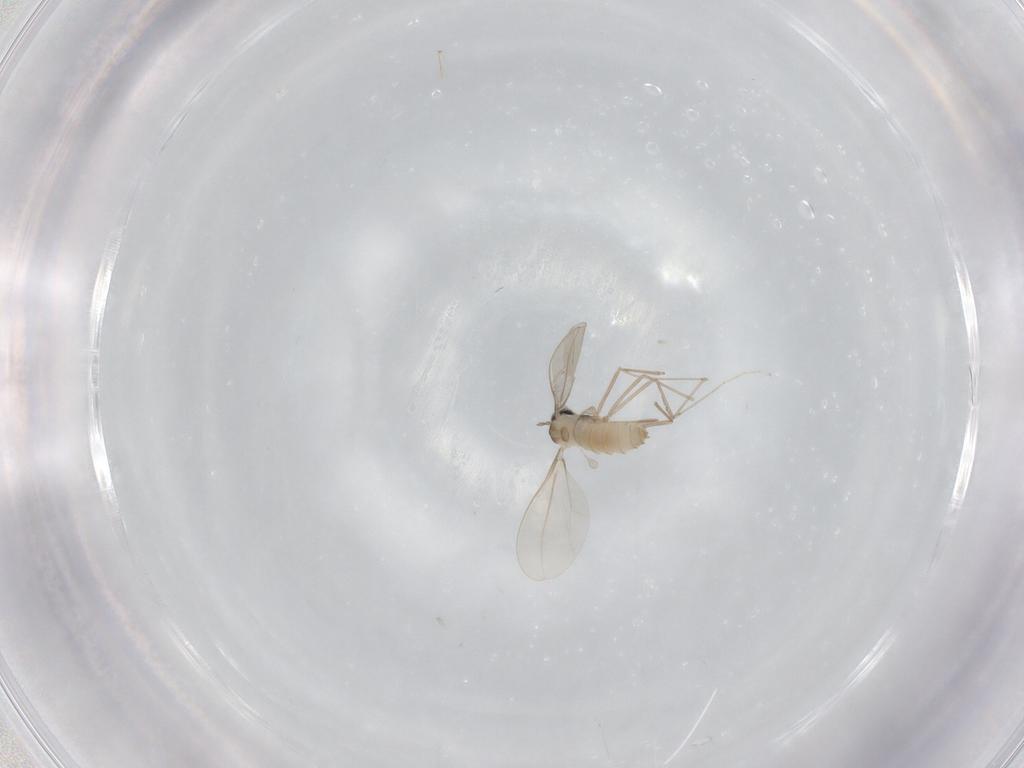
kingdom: Animalia
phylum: Arthropoda
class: Insecta
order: Diptera
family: Cecidomyiidae
